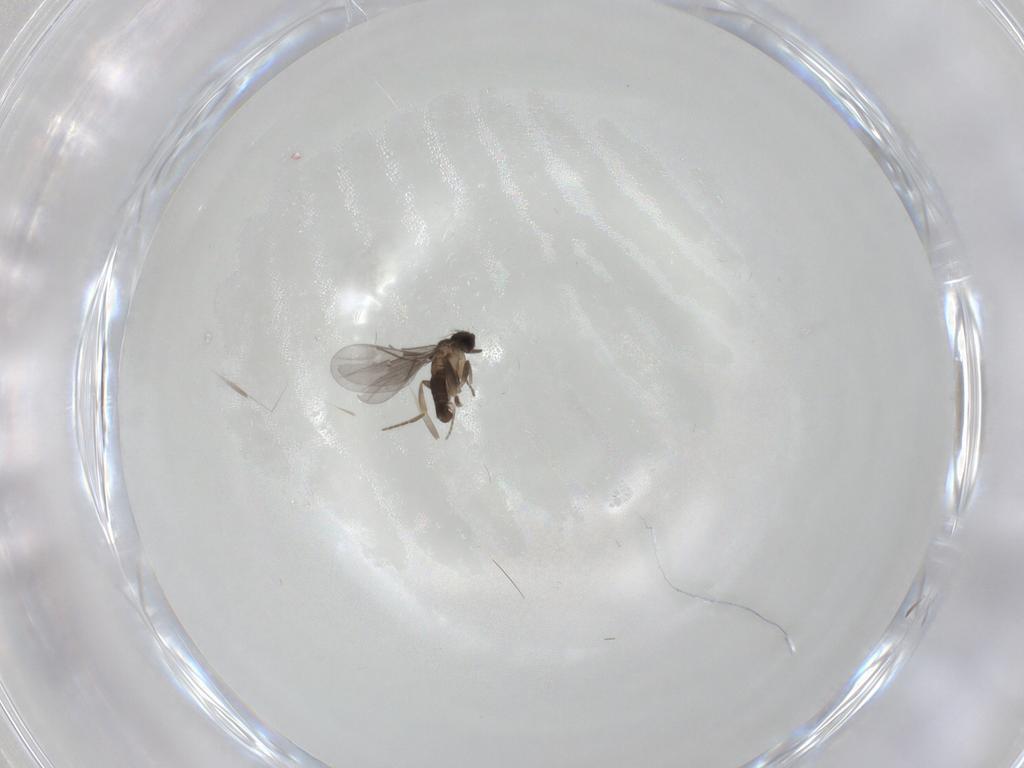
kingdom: Animalia
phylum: Arthropoda
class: Insecta
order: Diptera
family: Phoridae
